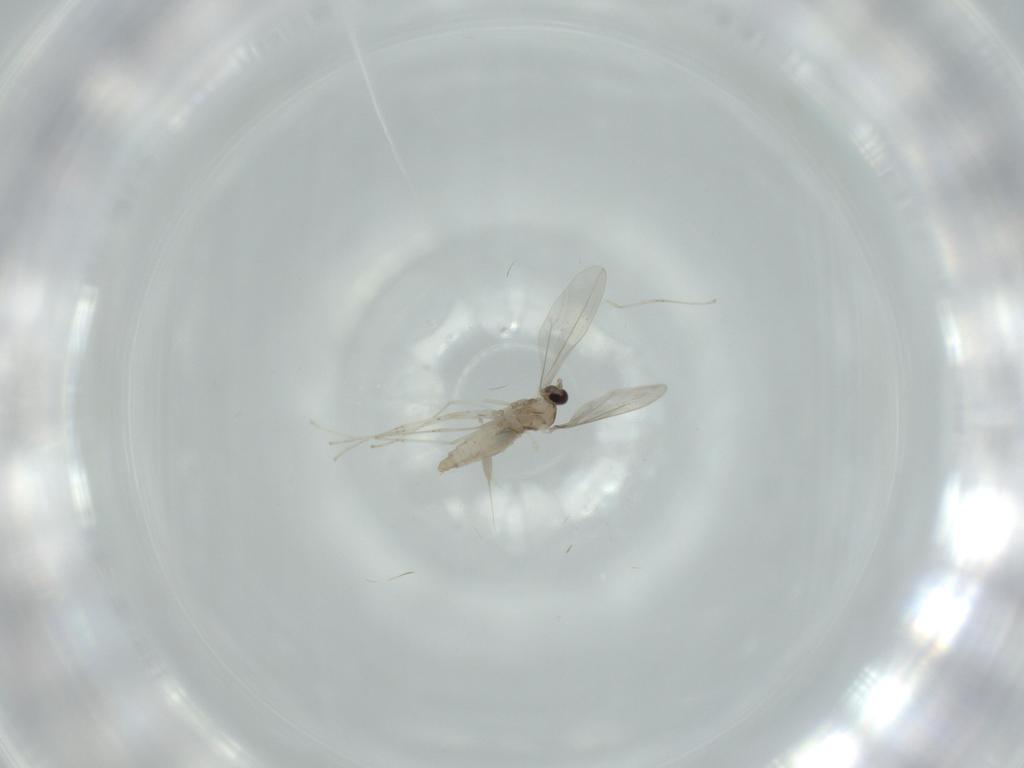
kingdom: Animalia
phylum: Arthropoda
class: Insecta
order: Diptera
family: Cecidomyiidae
